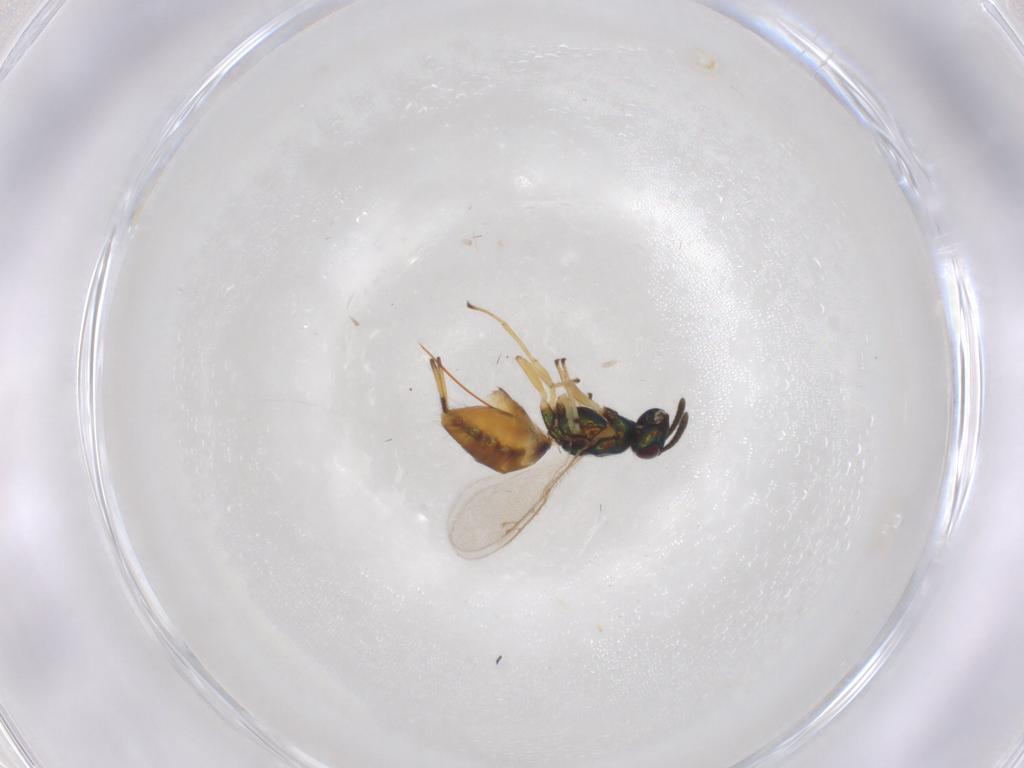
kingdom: Animalia
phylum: Arthropoda
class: Insecta
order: Hymenoptera
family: Eupelmidae
